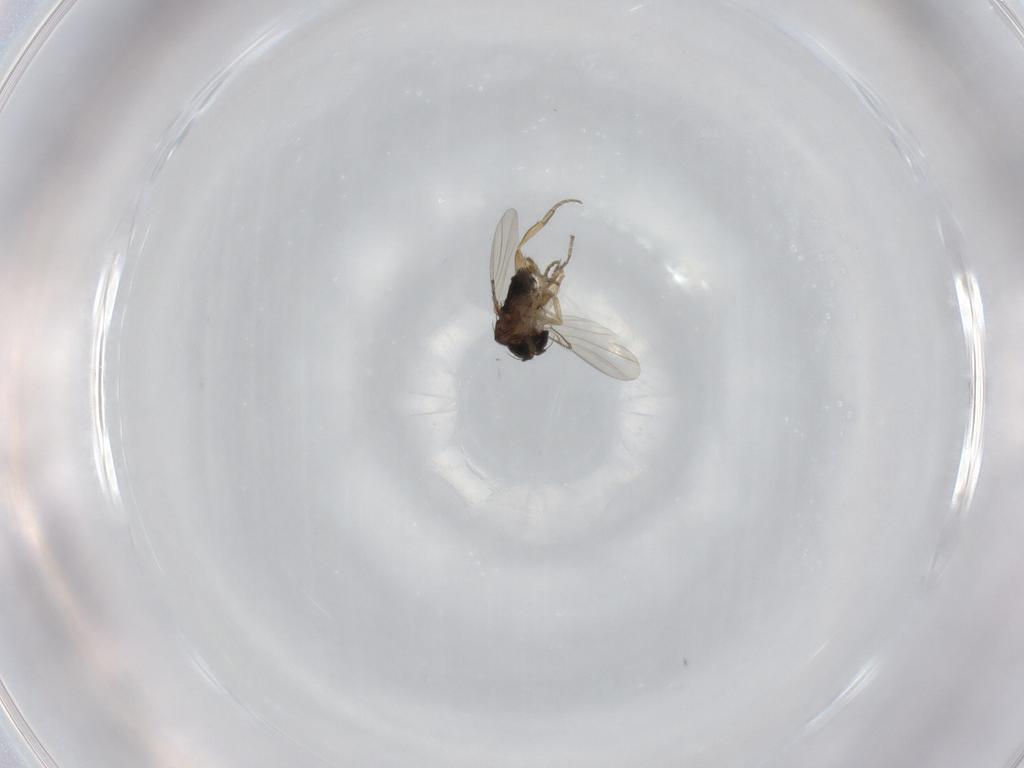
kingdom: Animalia
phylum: Arthropoda
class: Insecta
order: Diptera
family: Phoridae
